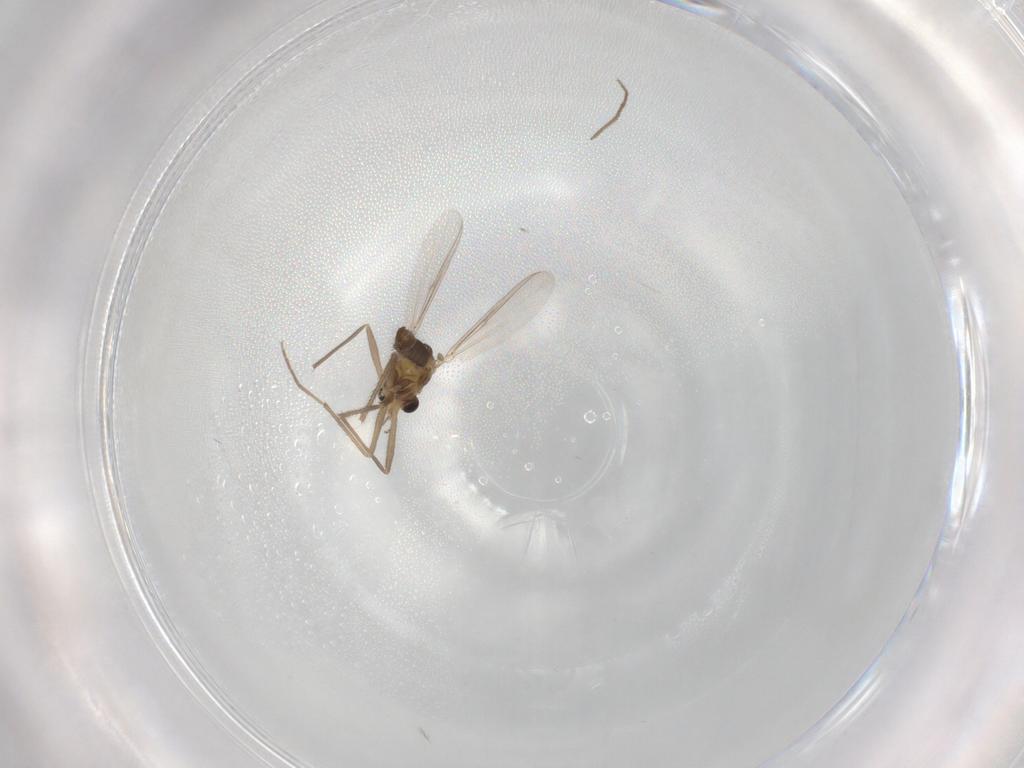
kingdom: Animalia
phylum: Arthropoda
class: Insecta
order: Diptera
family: Chironomidae
